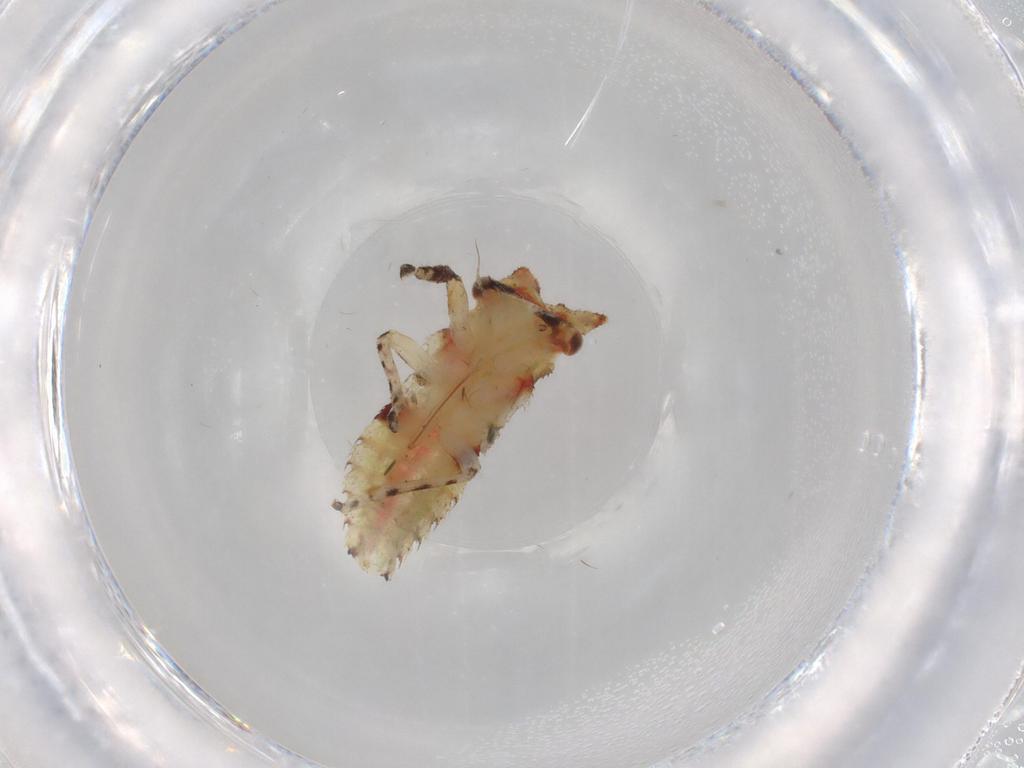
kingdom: Animalia
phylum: Arthropoda
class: Insecta
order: Hemiptera
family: Membracidae
